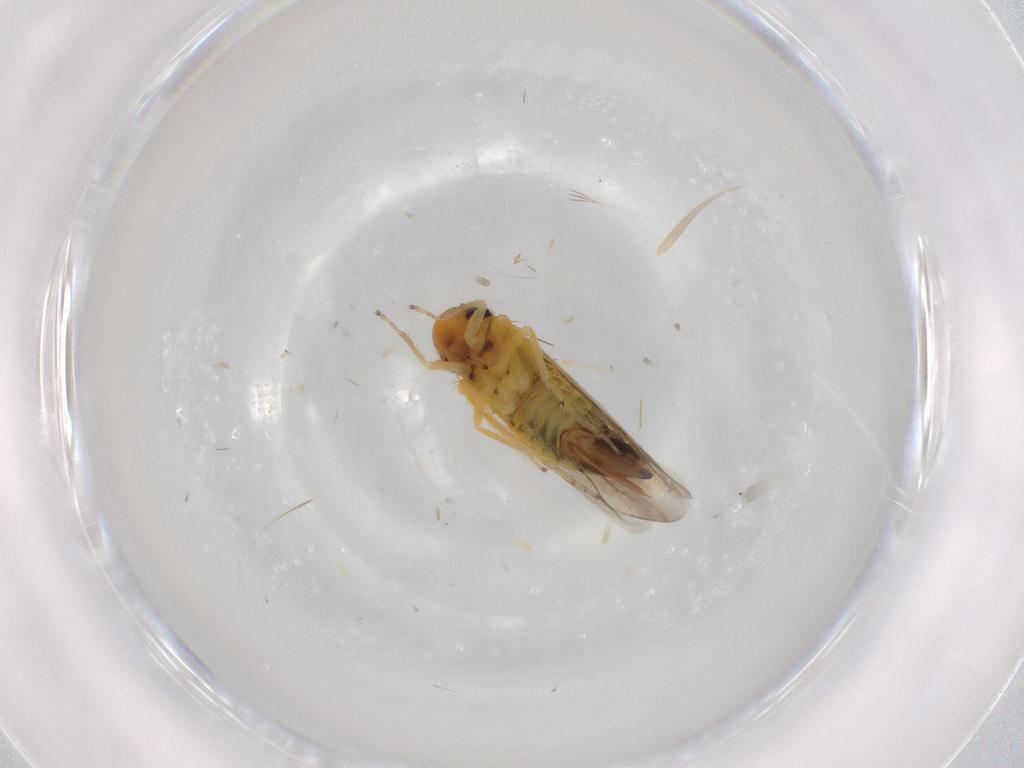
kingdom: Animalia
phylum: Arthropoda
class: Insecta
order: Hemiptera
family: Cicadellidae
